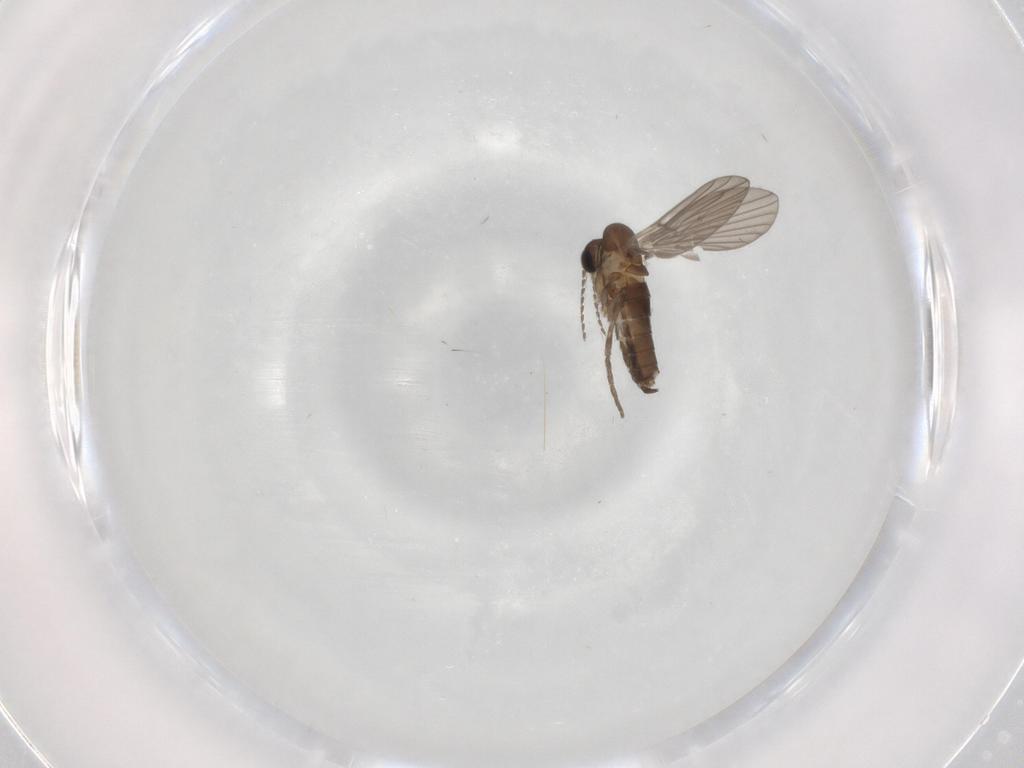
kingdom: Animalia
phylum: Arthropoda
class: Insecta
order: Diptera
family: Psychodidae
